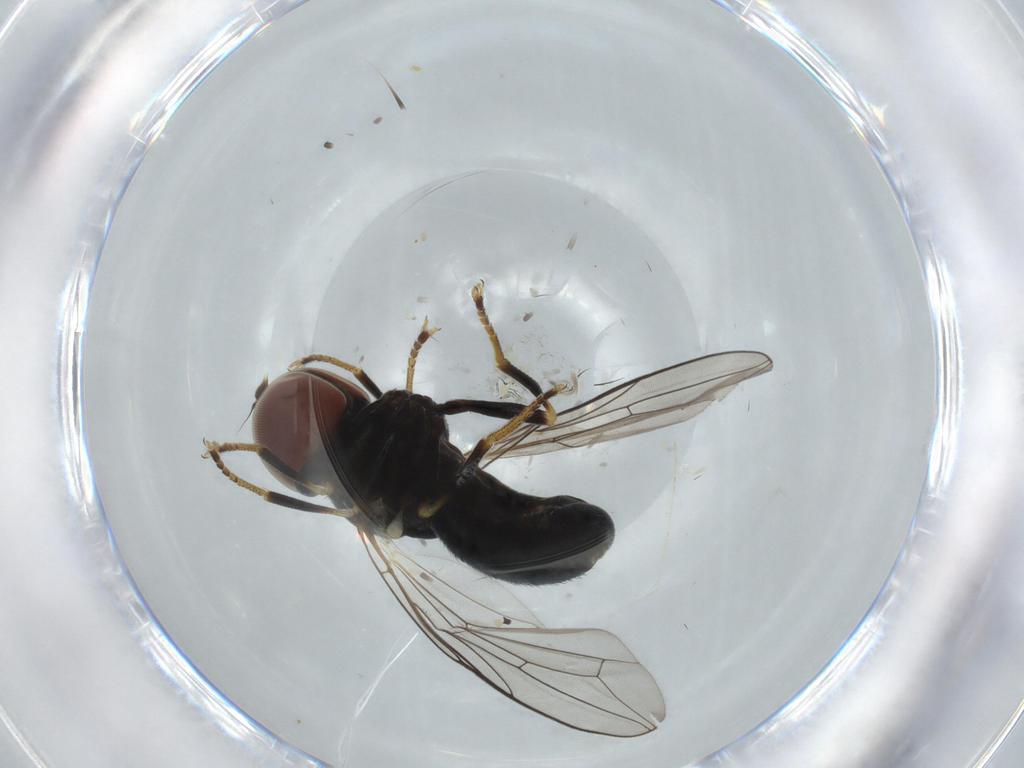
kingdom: Animalia
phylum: Arthropoda
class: Insecta
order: Diptera
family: Pipunculidae
